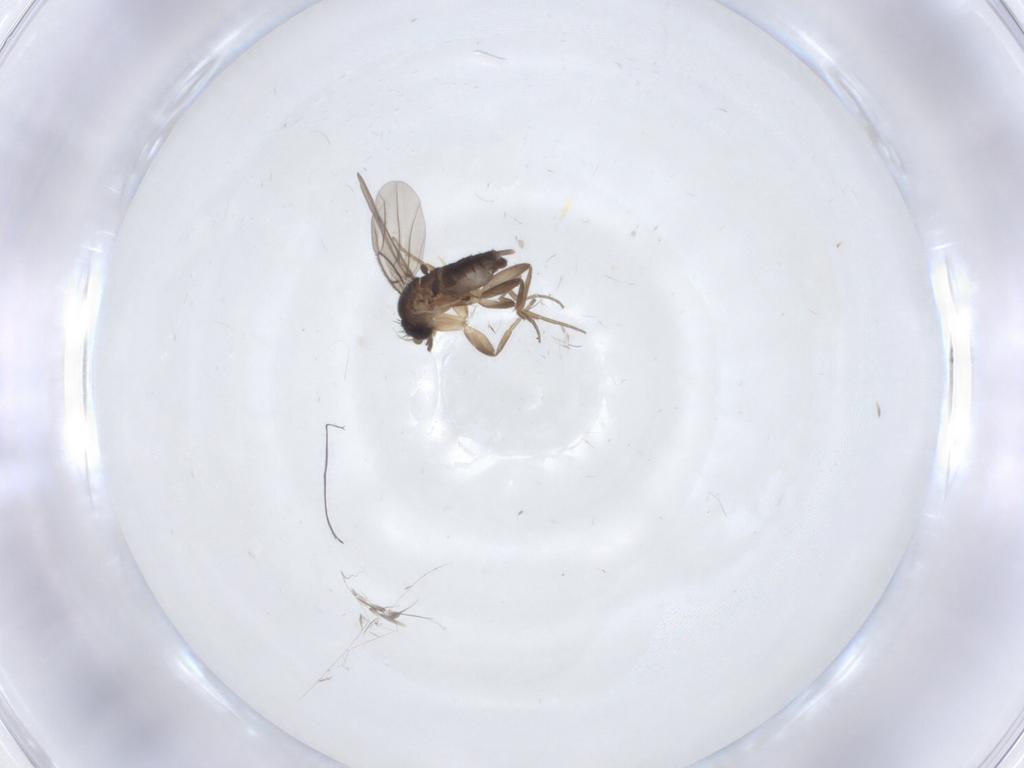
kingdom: Animalia
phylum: Arthropoda
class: Insecta
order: Diptera
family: Phoridae
